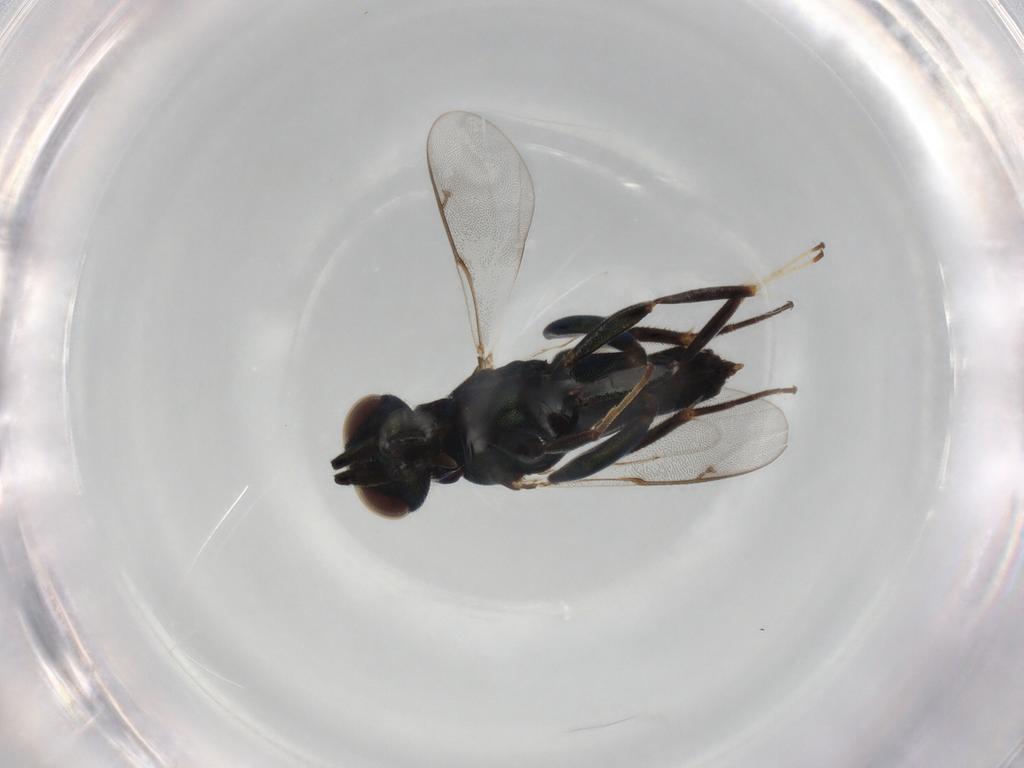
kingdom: Animalia
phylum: Arthropoda
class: Insecta
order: Hymenoptera
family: Eupelmidae
